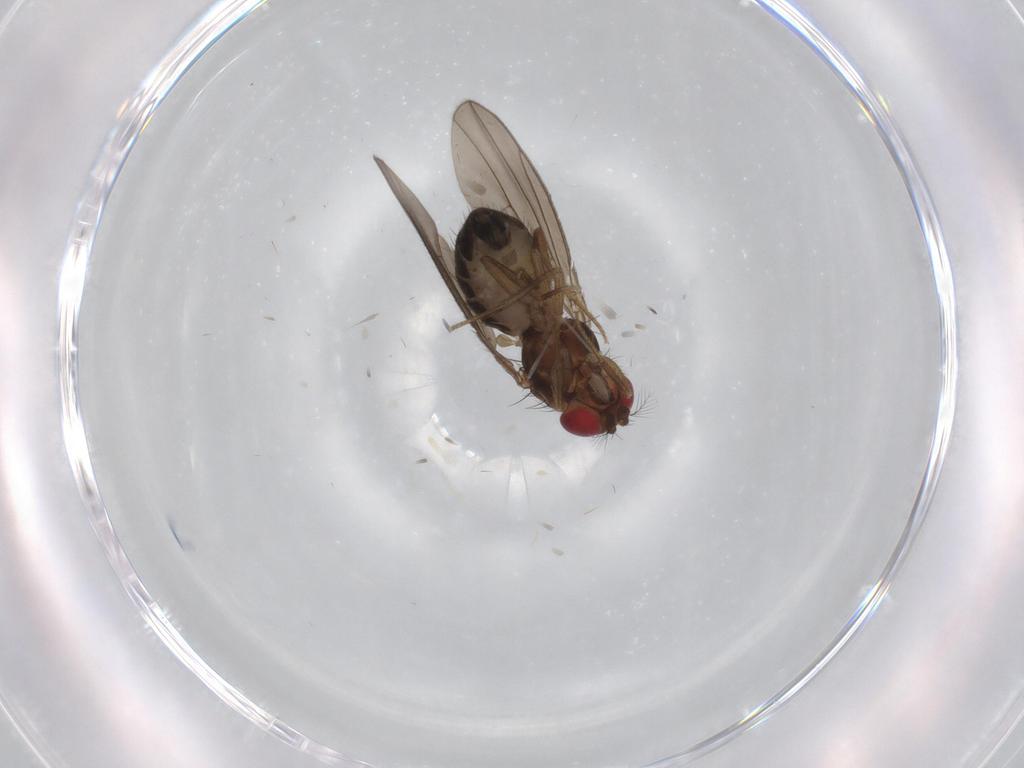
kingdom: Animalia
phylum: Arthropoda
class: Insecta
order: Diptera
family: Drosophilidae
